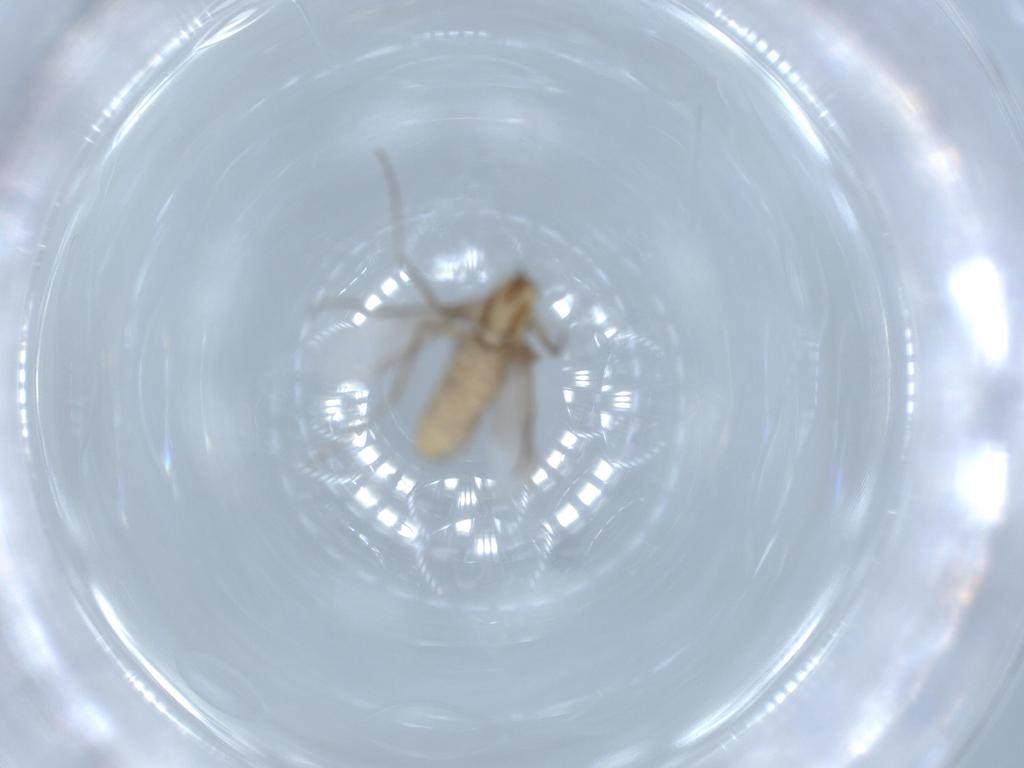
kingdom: Animalia
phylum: Arthropoda
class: Insecta
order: Diptera
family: Chironomidae
